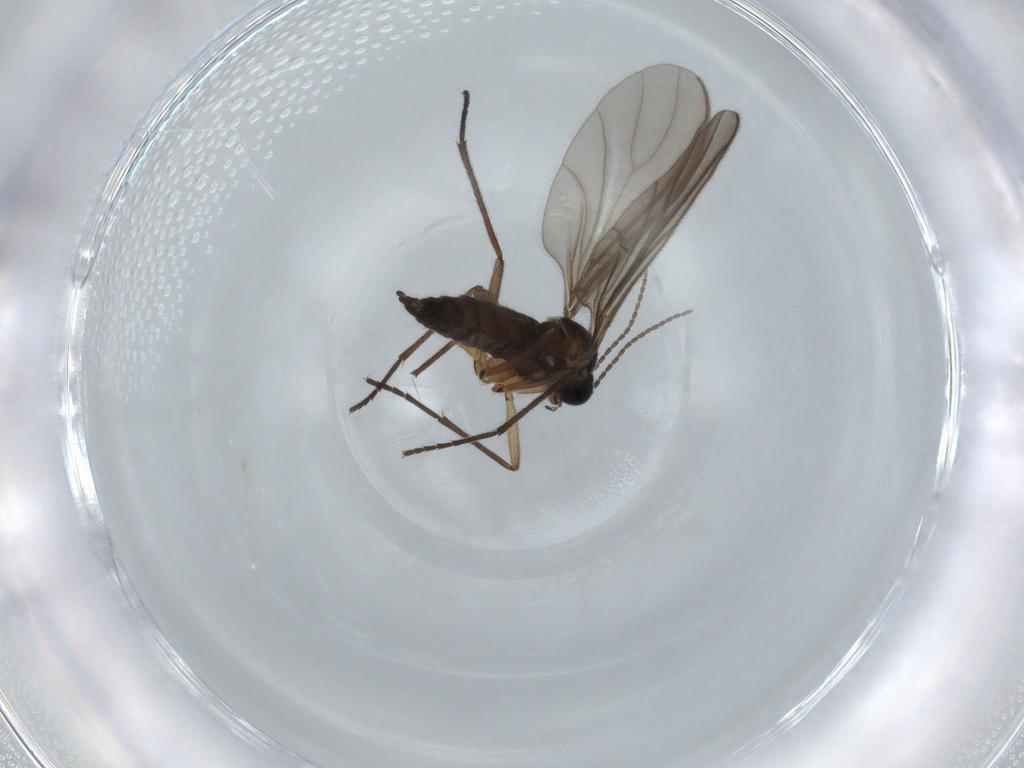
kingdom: Animalia
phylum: Arthropoda
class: Insecta
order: Diptera
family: Sciaridae
